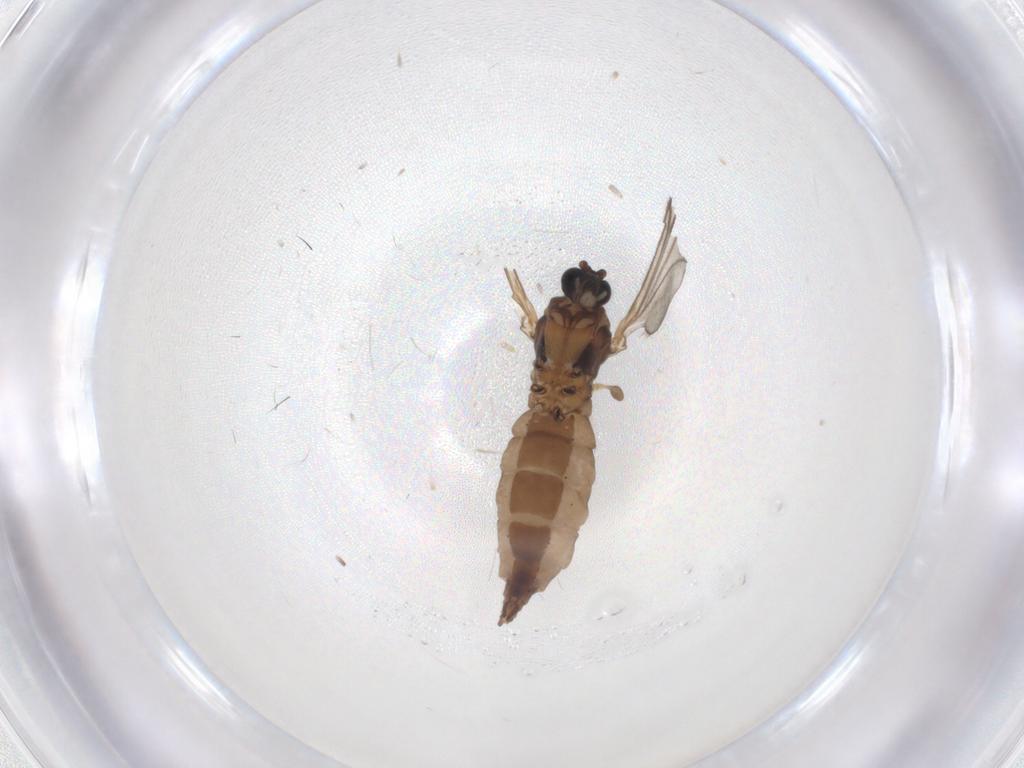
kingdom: Animalia
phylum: Arthropoda
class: Insecta
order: Diptera
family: Sciaridae
